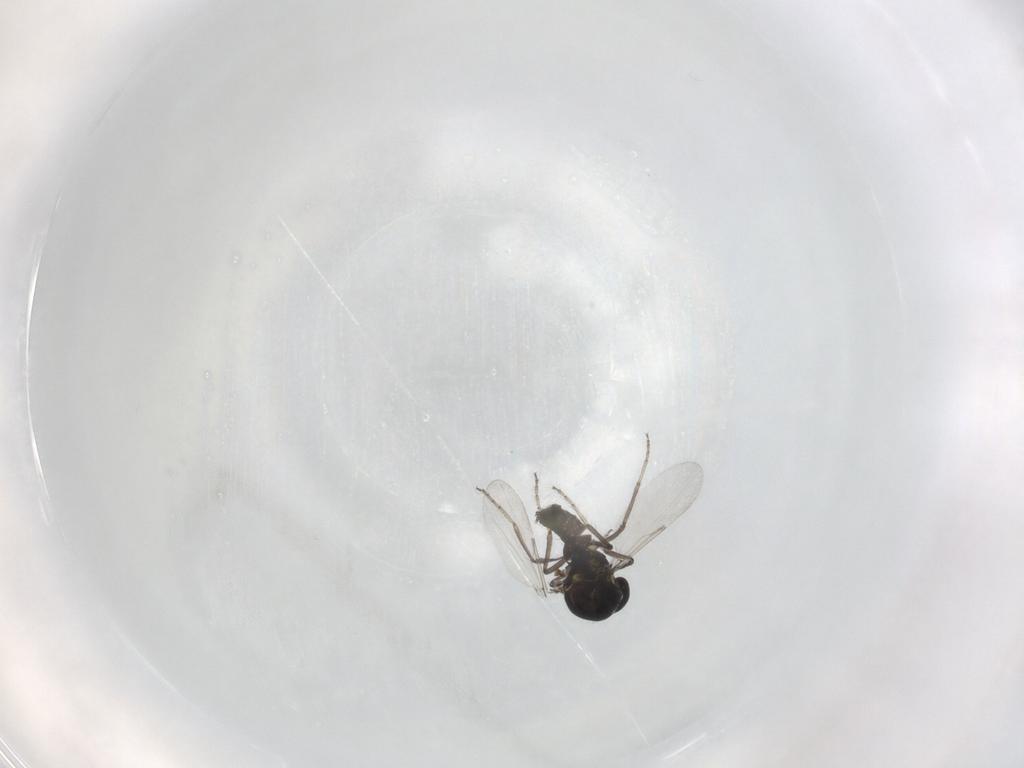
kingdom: Animalia
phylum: Arthropoda
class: Insecta
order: Diptera
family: Ceratopogonidae
